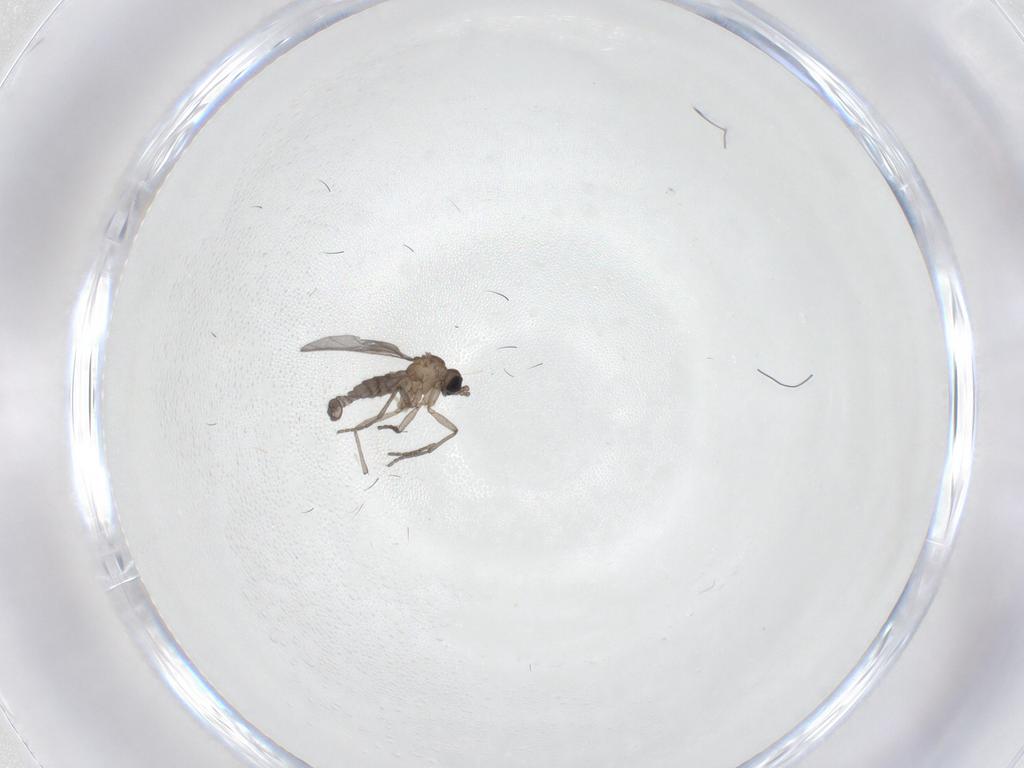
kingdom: Animalia
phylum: Arthropoda
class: Insecta
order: Diptera
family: Sciaridae
